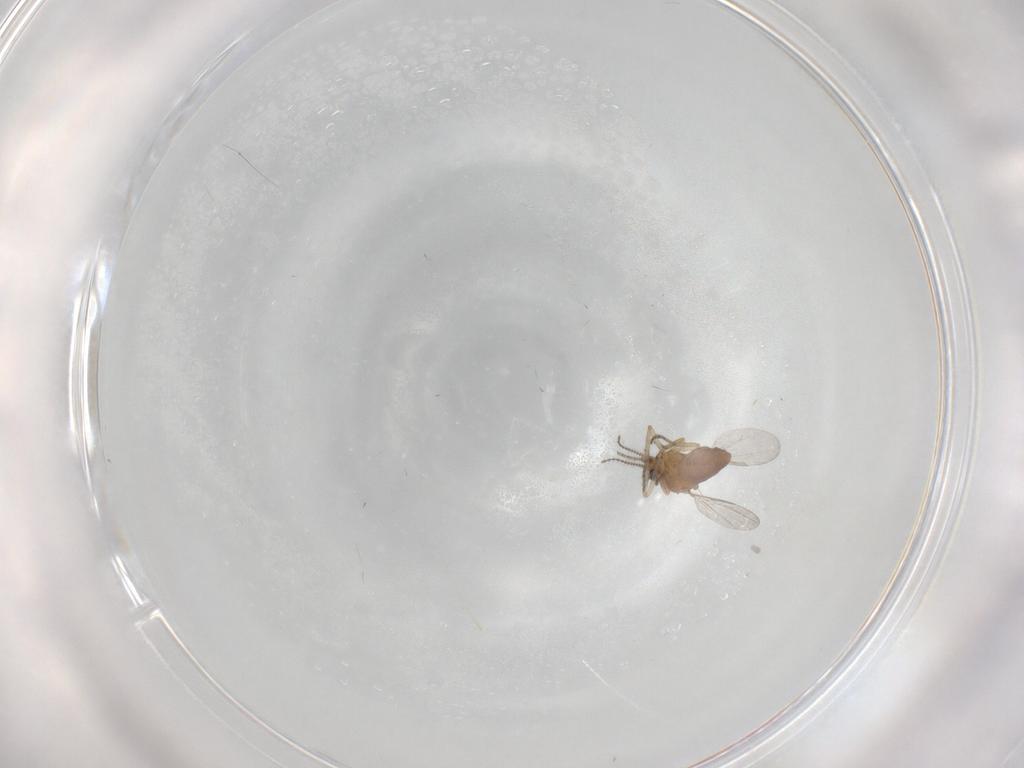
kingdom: Animalia
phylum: Arthropoda
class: Insecta
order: Diptera
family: Ceratopogonidae
